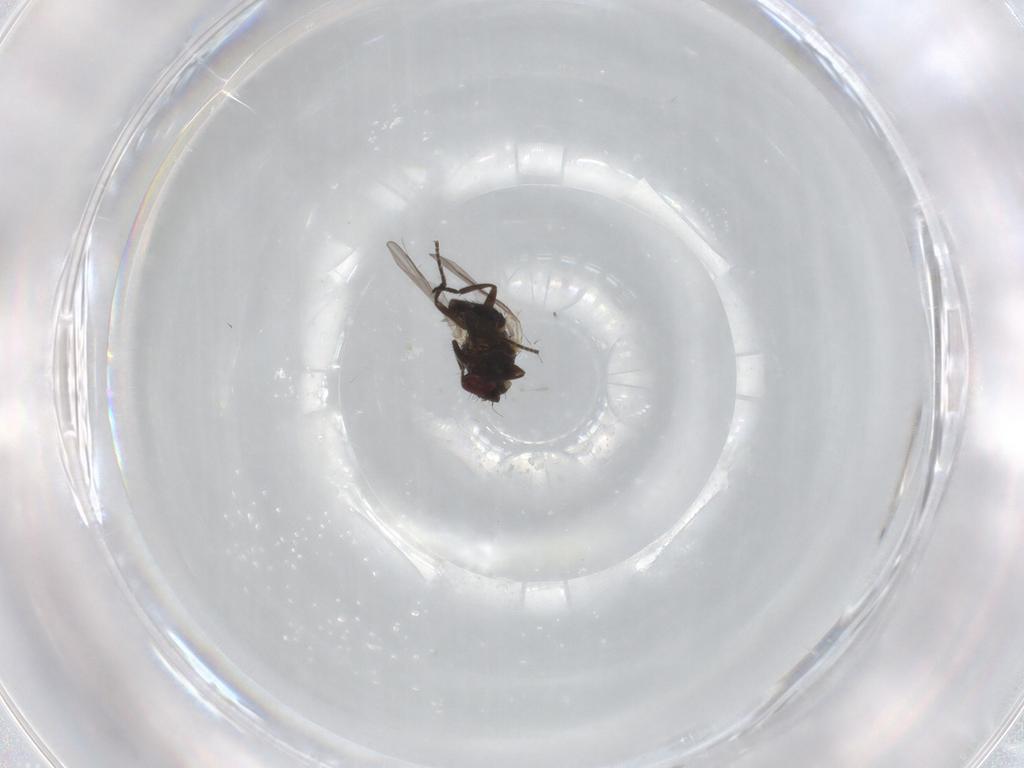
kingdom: Animalia
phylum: Arthropoda
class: Insecta
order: Diptera
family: Agromyzidae
